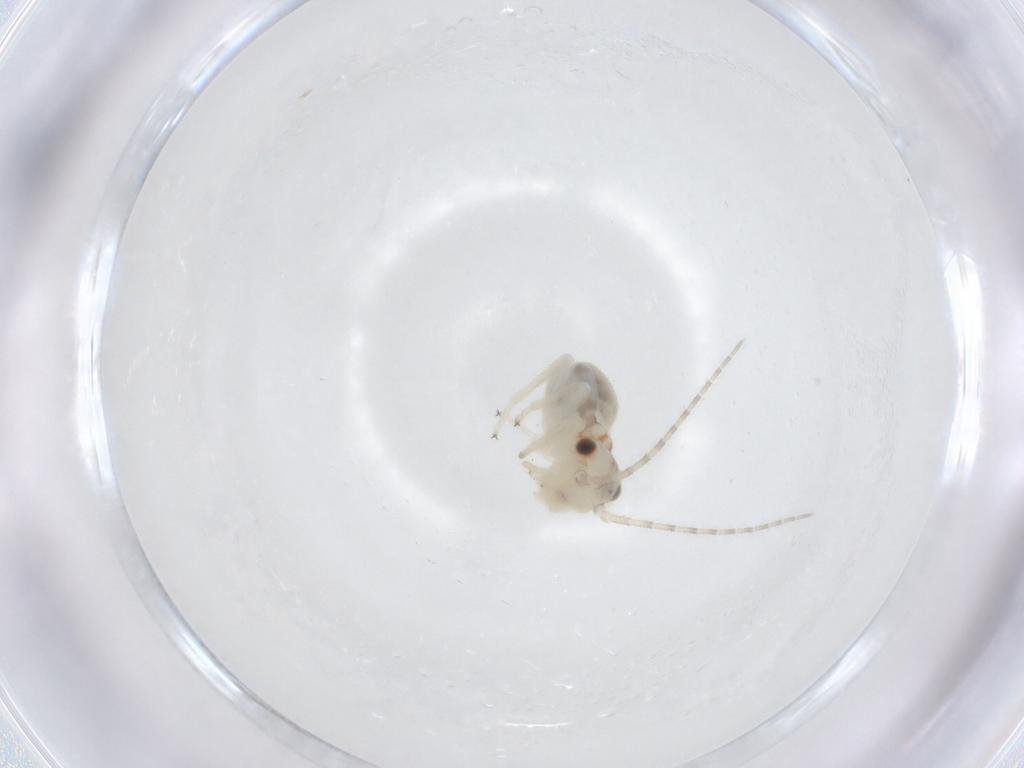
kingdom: Animalia
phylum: Arthropoda
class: Insecta
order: Psocodea
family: Amphipsocidae
